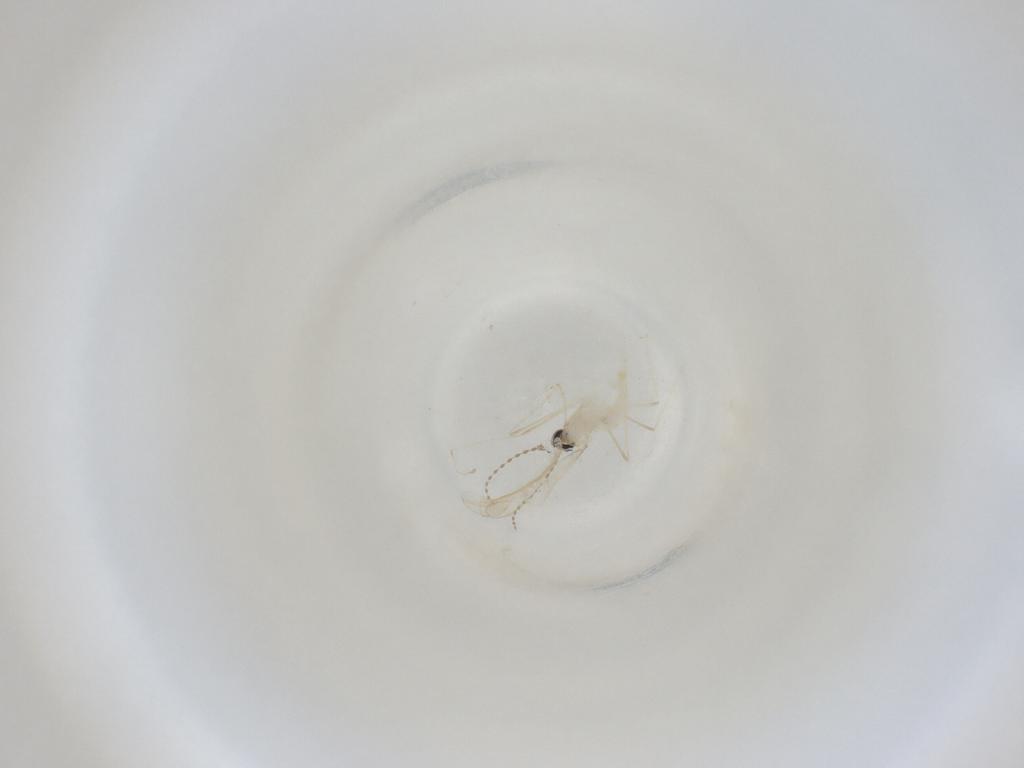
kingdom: Animalia
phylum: Arthropoda
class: Insecta
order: Diptera
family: Cecidomyiidae
